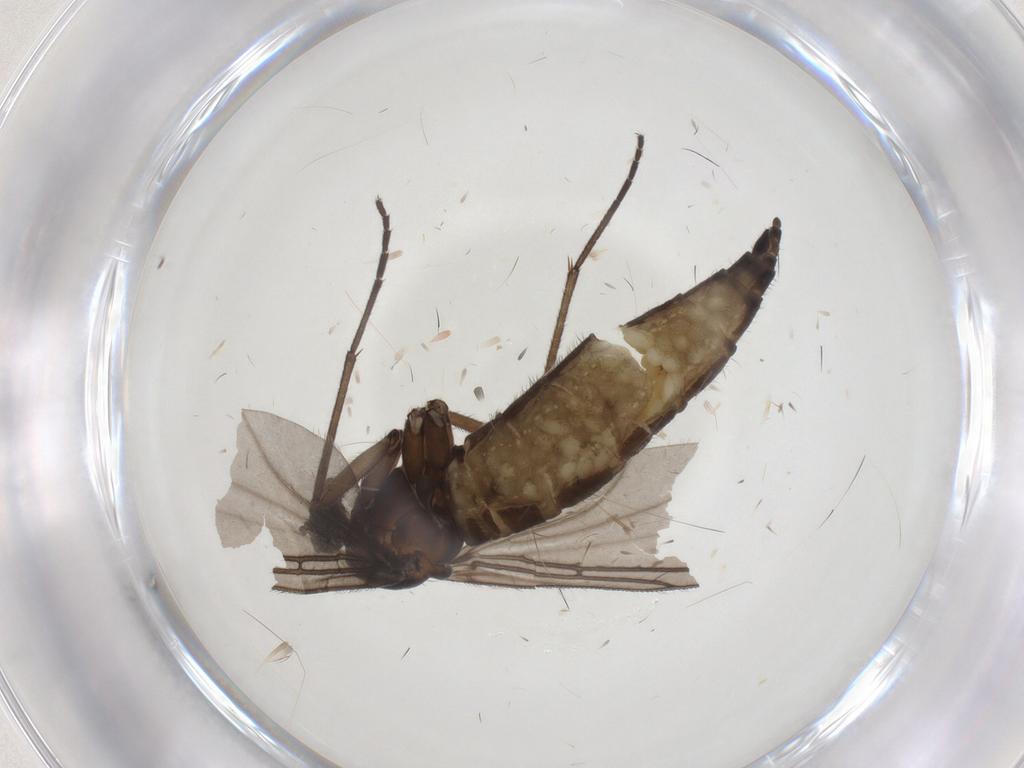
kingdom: Animalia
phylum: Arthropoda
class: Insecta
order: Diptera
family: Sciaridae
